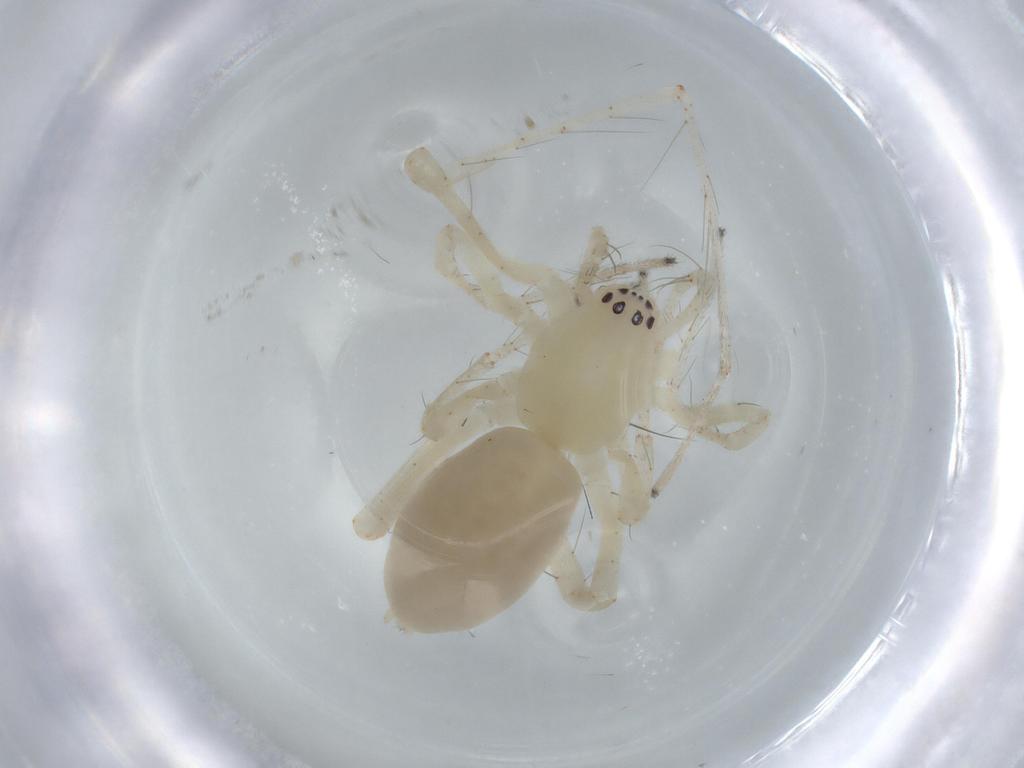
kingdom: Animalia
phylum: Arthropoda
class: Arachnida
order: Araneae
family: Anyphaenidae
